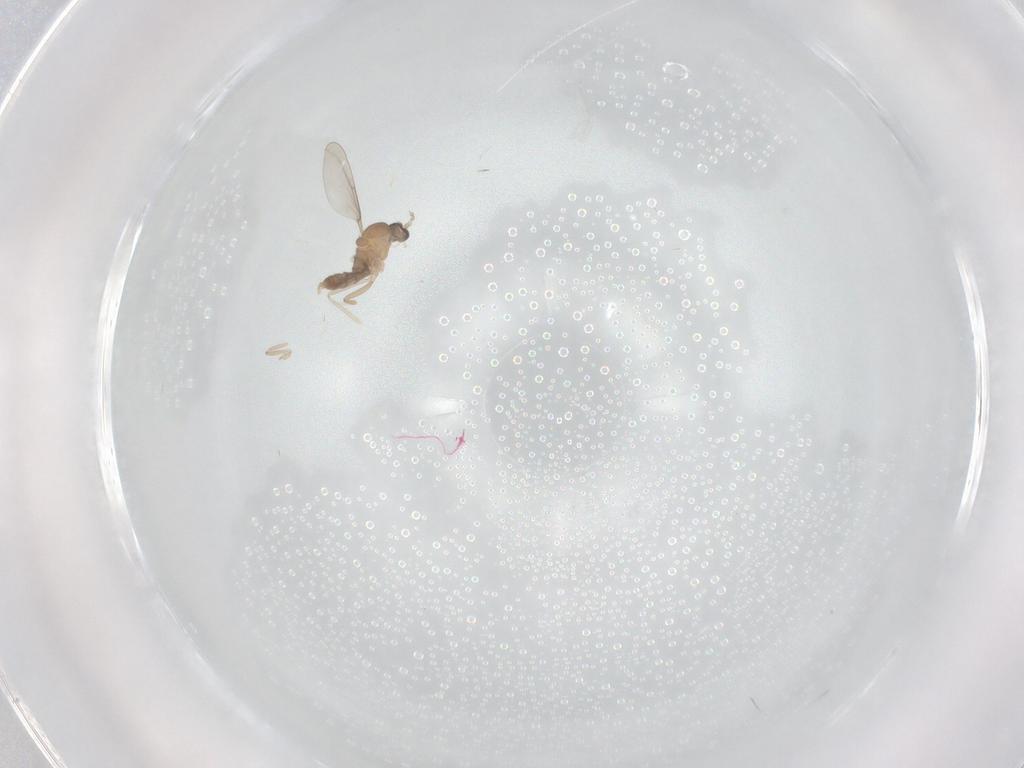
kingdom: Animalia
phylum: Arthropoda
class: Insecta
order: Diptera
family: Cecidomyiidae
